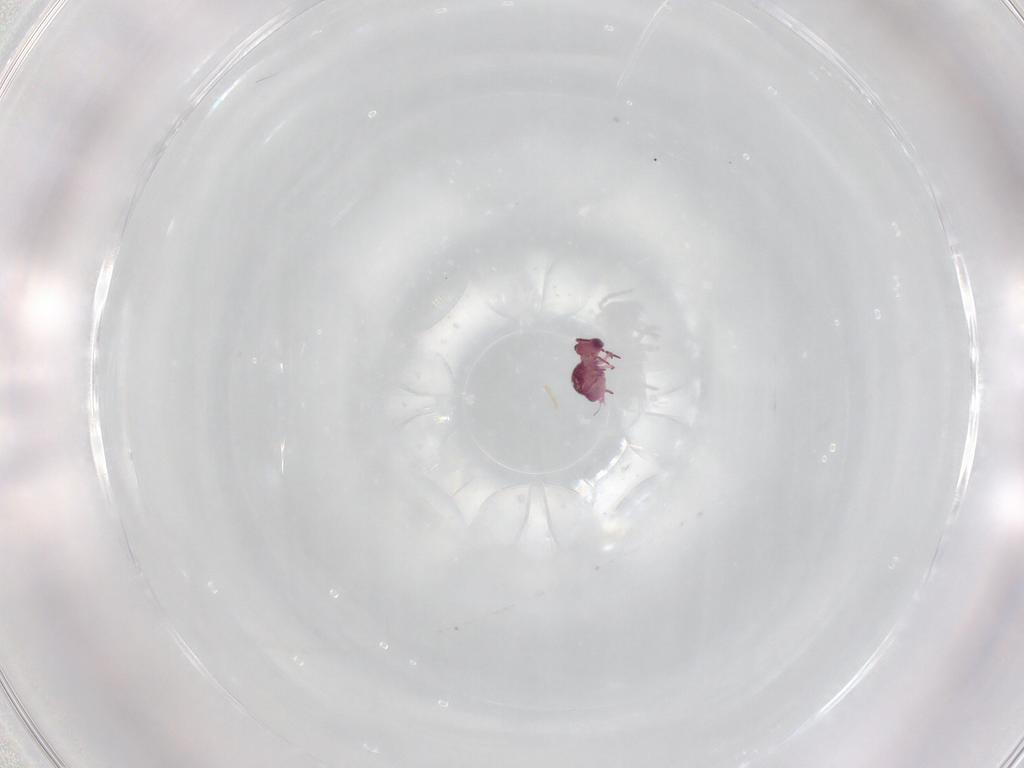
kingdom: Animalia
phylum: Arthropoda
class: Collembola
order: Symphypleona
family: Sminthurididae
